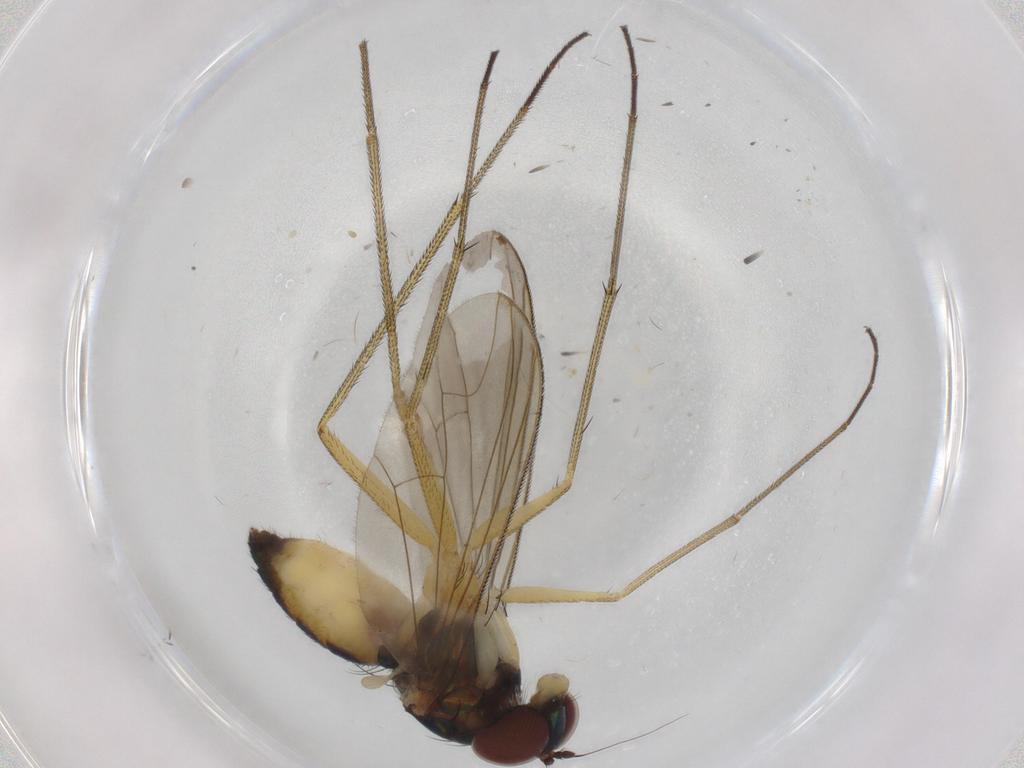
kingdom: Animalia
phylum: Arthropoda
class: Insecta
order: Diptera
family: Dolichopodidae
